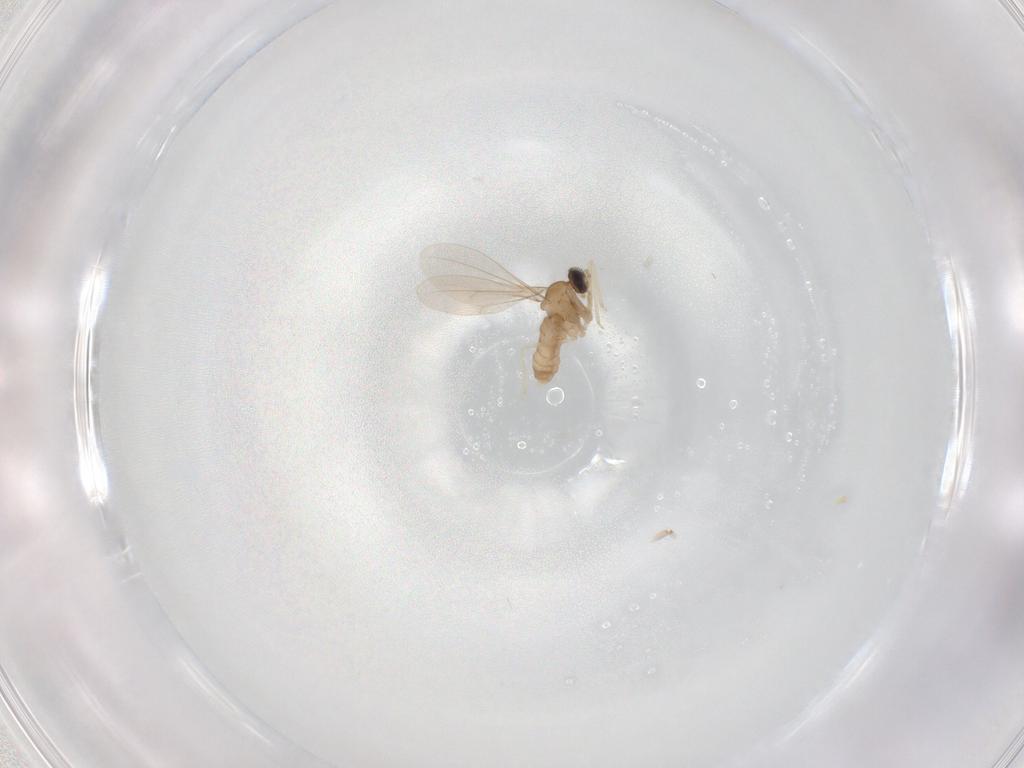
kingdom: Animalia
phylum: Arthropoda
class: Insecta
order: Diptera
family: Cecidomyiidae
